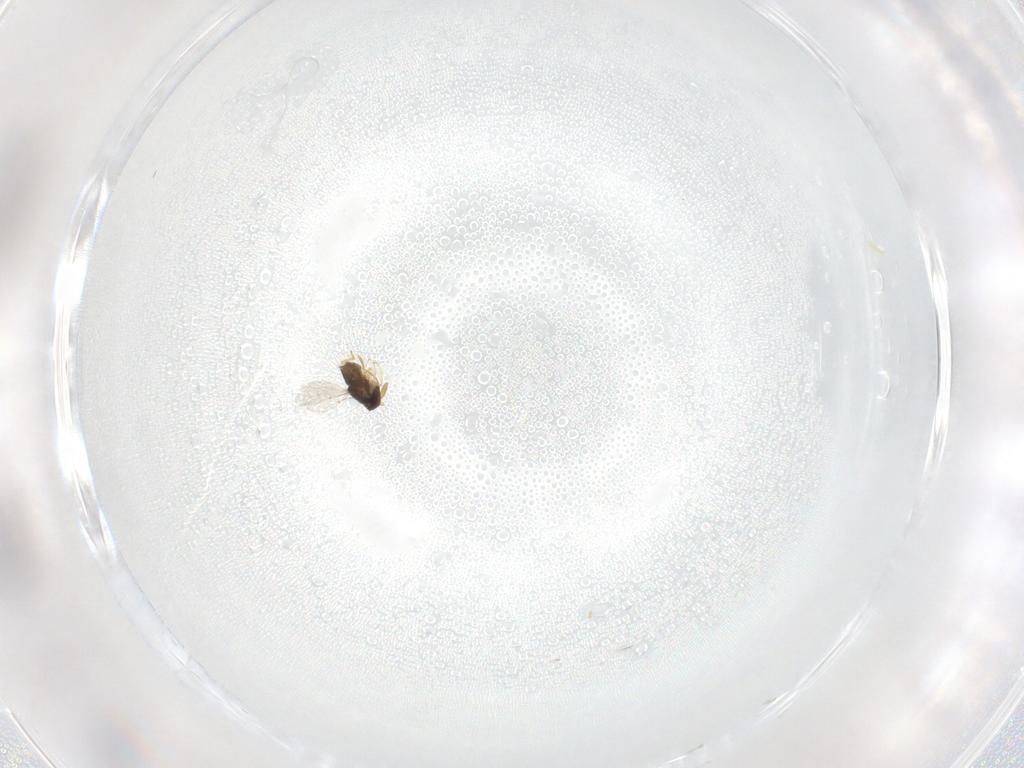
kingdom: Animalia
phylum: Arthropoda
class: Insecta
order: Hymenoptera
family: Encyrtidae
